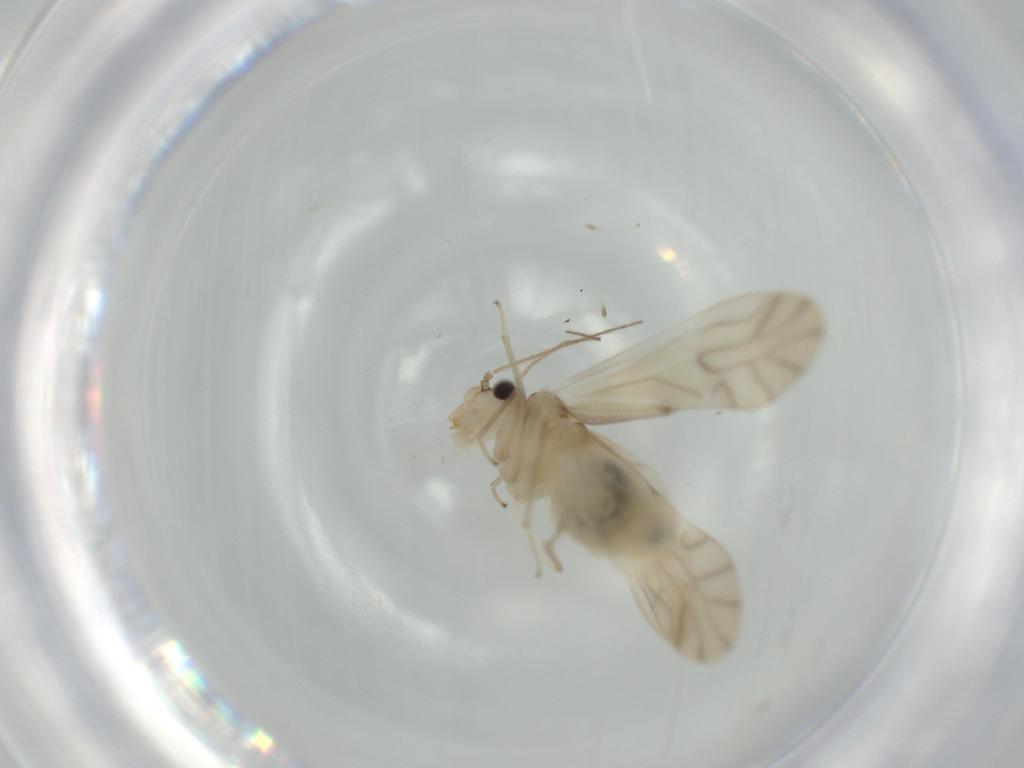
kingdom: Animalia
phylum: Arthropoda
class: Insecta
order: Psocodea
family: Caeciliusidae
